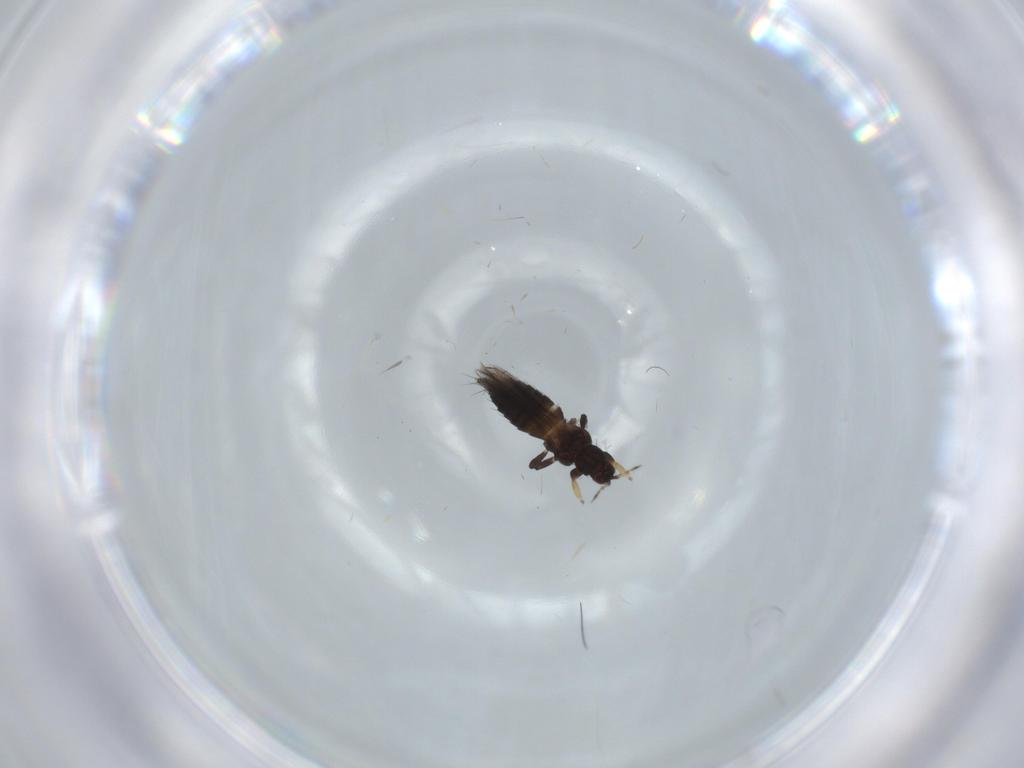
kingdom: Animalia
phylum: Arthropoda
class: Insecta
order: Thysanoptera
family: Thripidae
